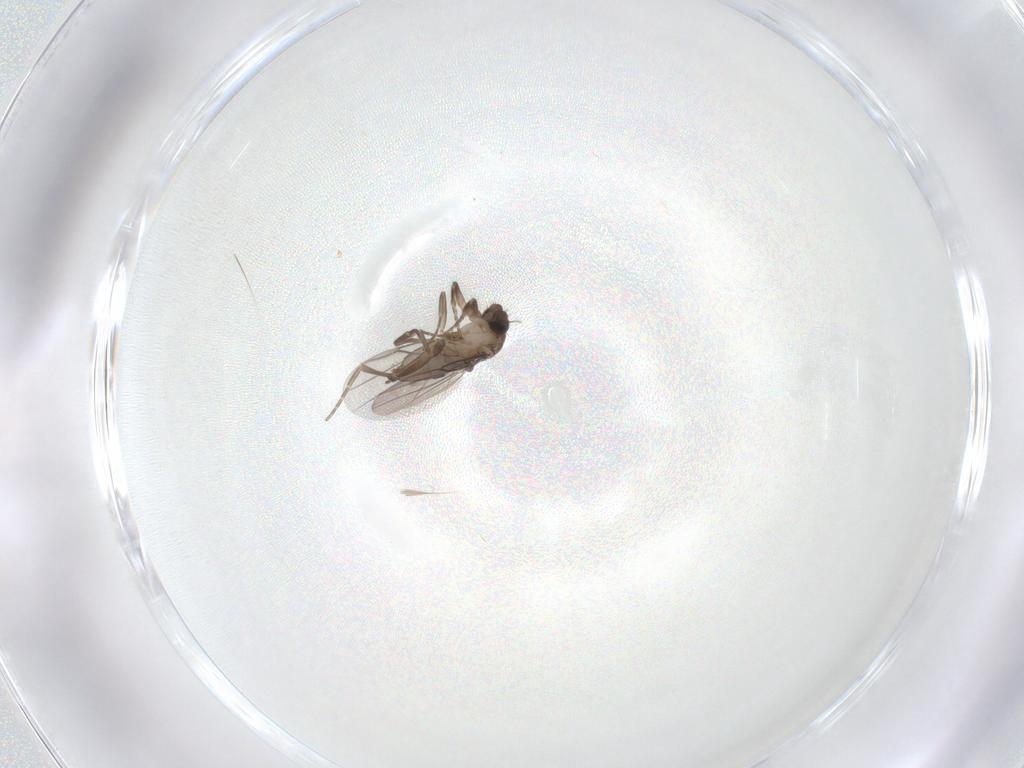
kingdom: Animalia
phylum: Arthropoda
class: Insecta
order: Diptera
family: Phoridae
